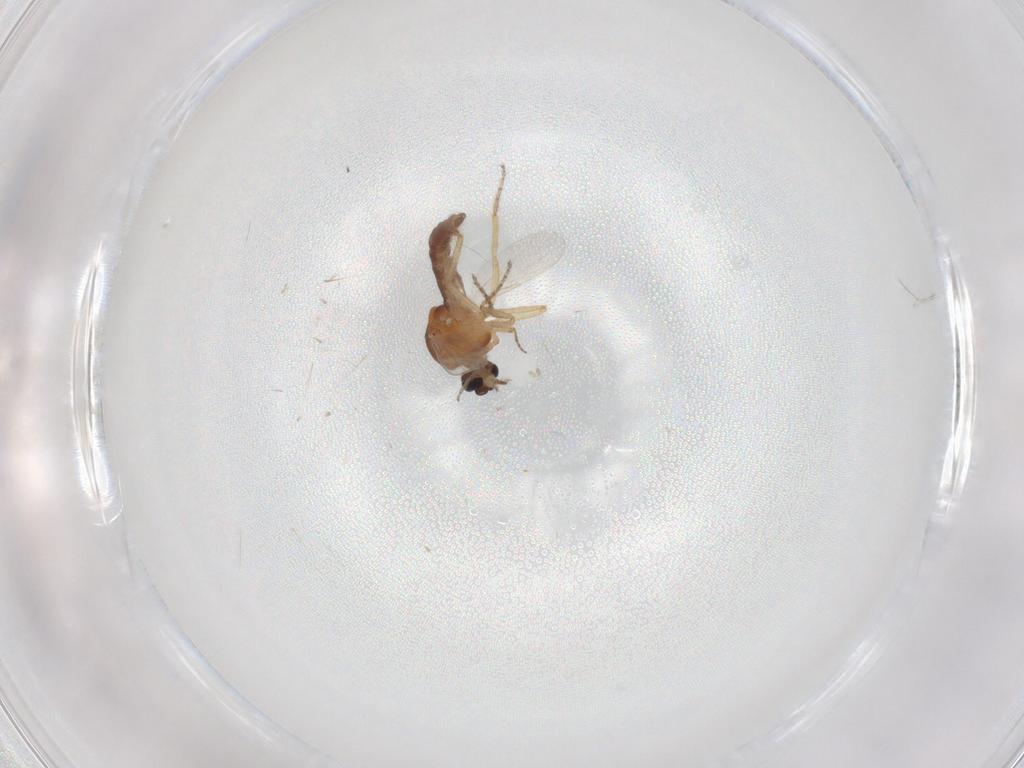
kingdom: Animalia
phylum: Arthropoda
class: Insecta
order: Diptera
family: Ceratopogonidae
